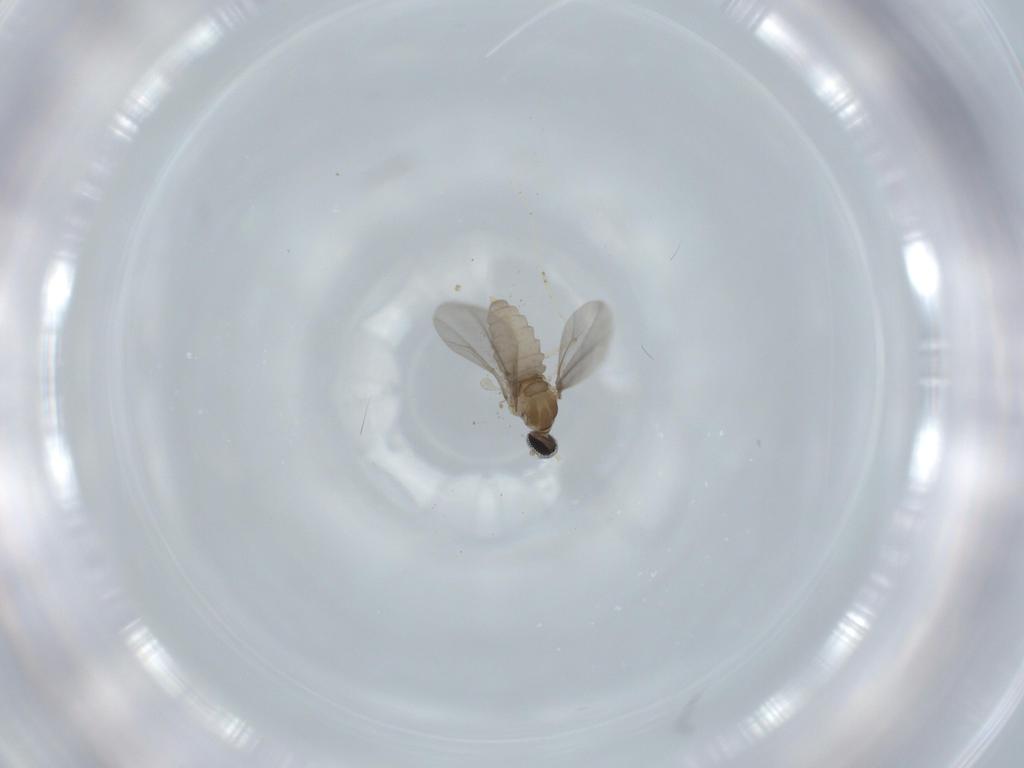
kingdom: Animalia
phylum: Arthropoda
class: Insecta
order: Diptera
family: Cecidomyiidae
